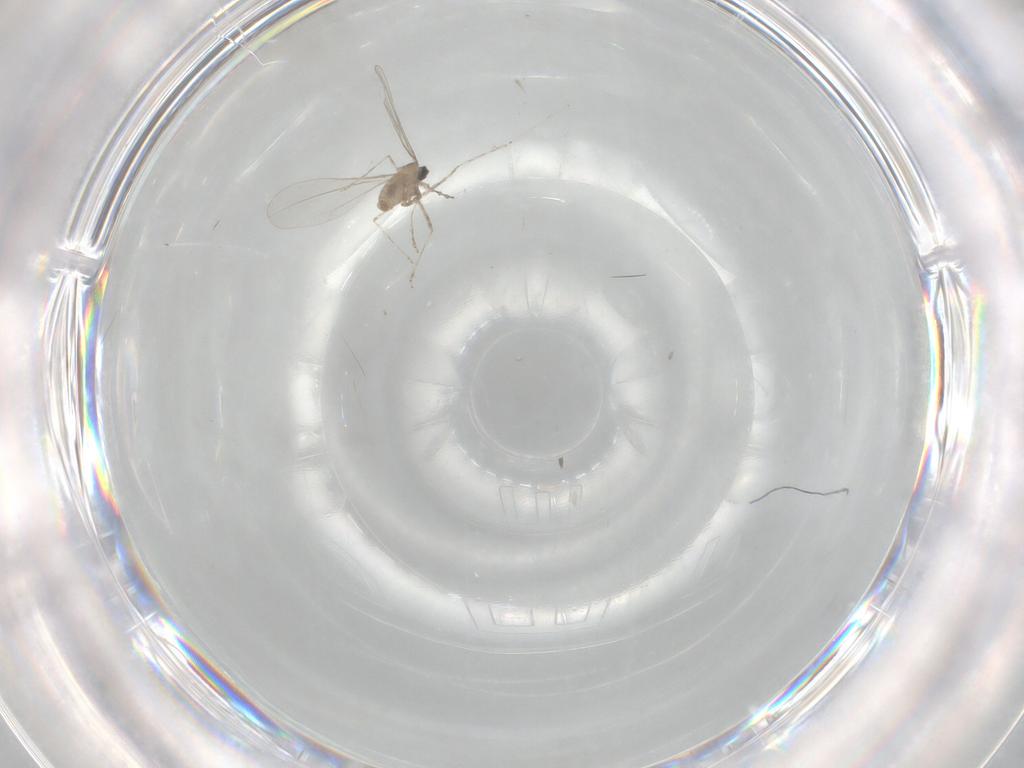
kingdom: Animalia
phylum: Arthropoda
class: Insecta
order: Diptera
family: Cecidomyiidae
